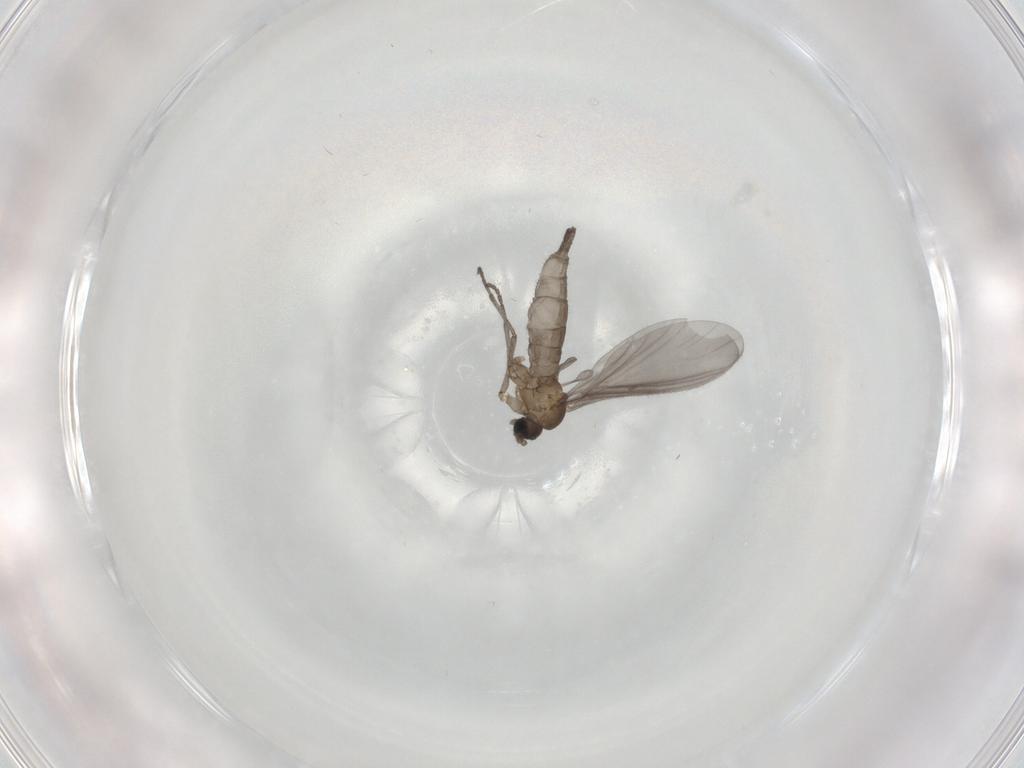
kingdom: Animalia
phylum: Arthropoda
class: Insecta
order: Diptera
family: Sciaridae
